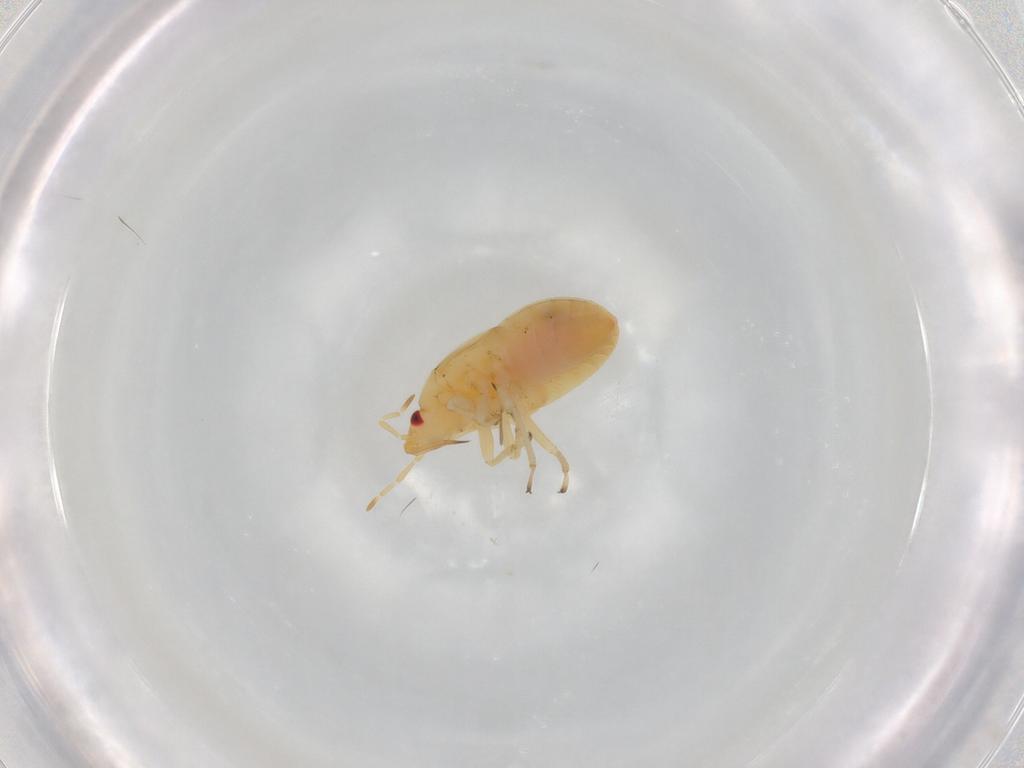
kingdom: Animalia
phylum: Arthropoda
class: Insecta
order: Hemiptera
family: Anthocoridae
